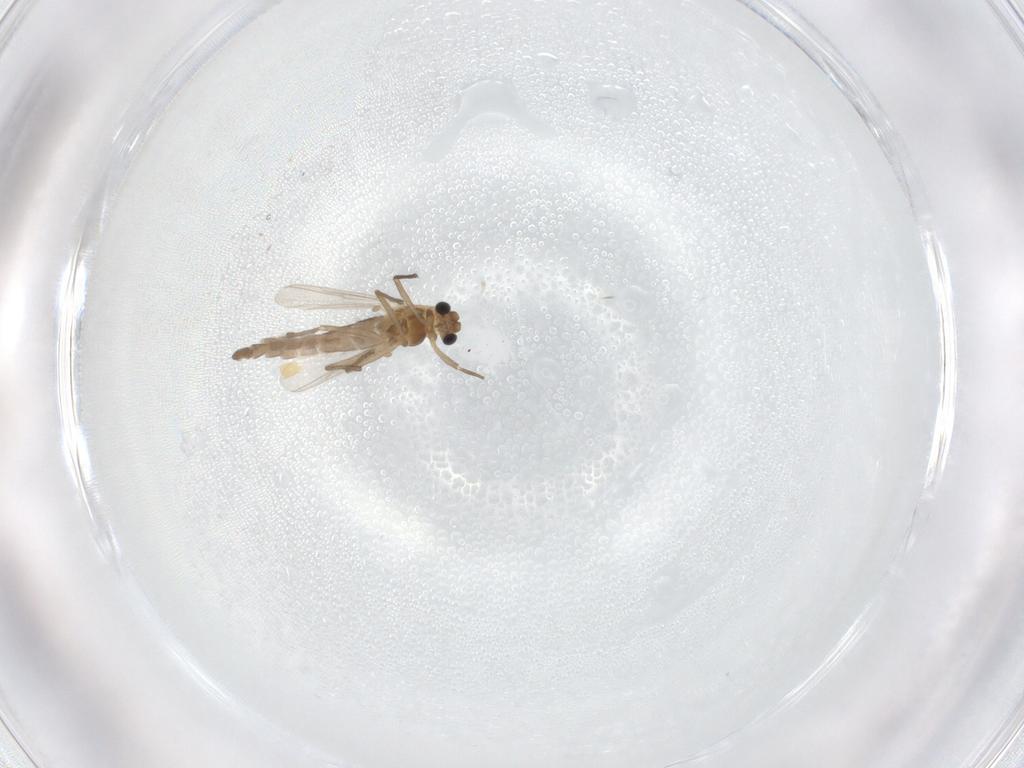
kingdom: Animalia
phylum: Arthropoda
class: Insecta
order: Diptera
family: Chironomidae
